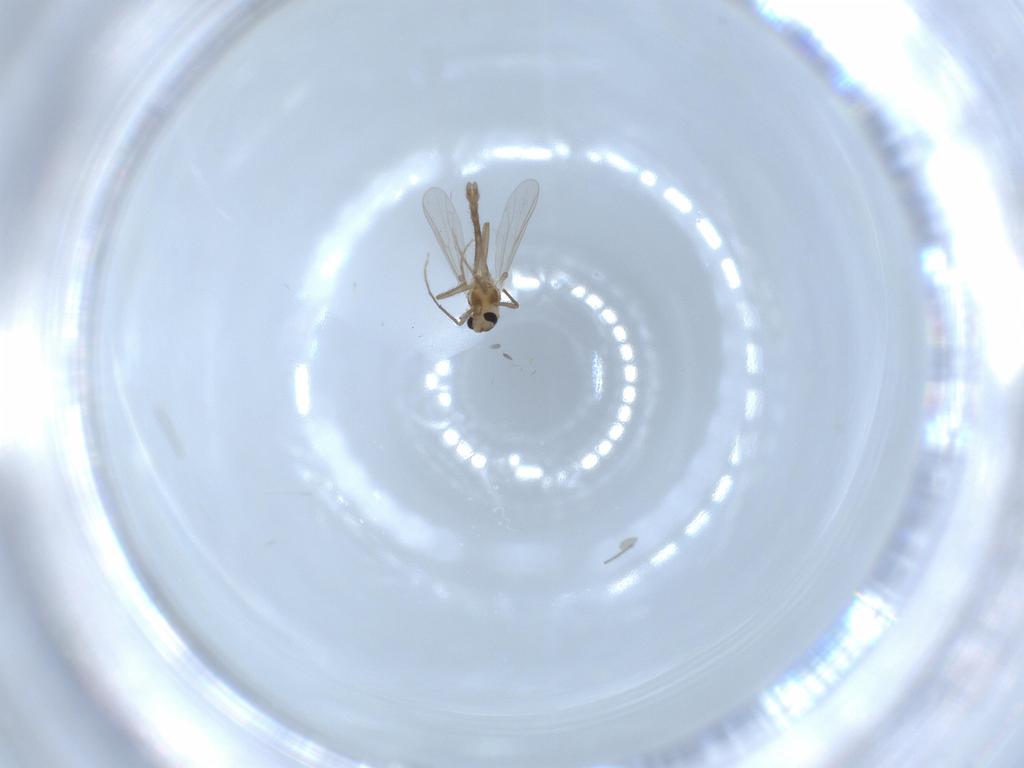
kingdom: Animalia
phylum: Arthropoda
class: Insecta
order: Diptera
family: Chironomidae
